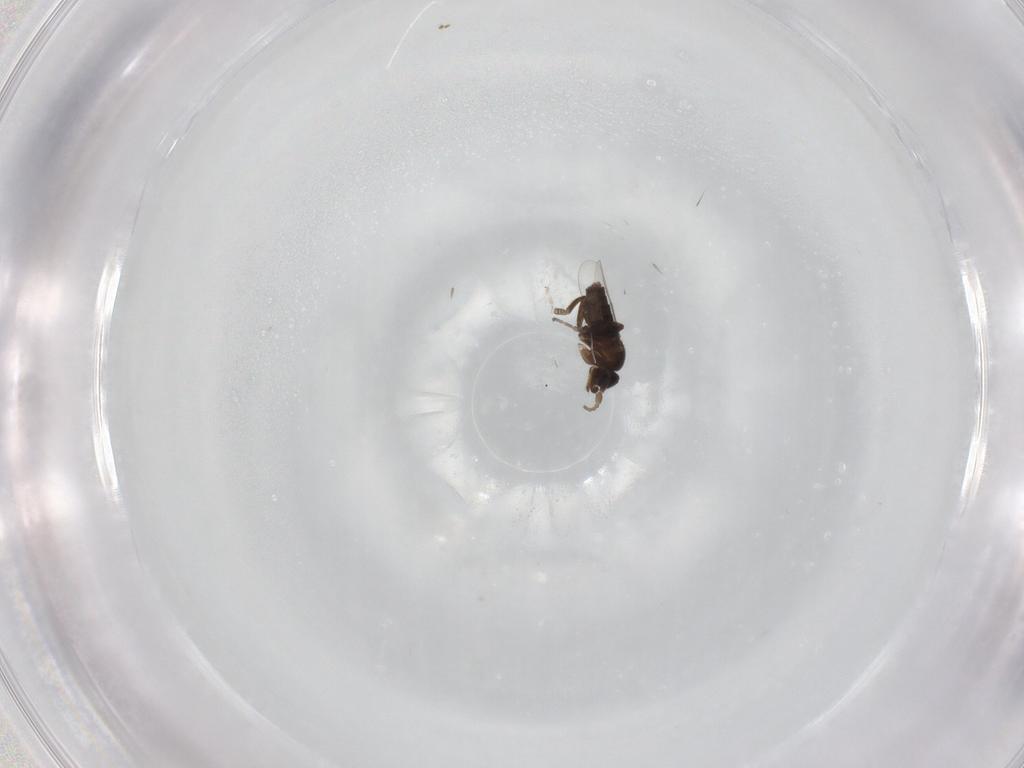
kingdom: Animalia
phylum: Arthropoda
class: Insecta
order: Diptera
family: Phoridae
